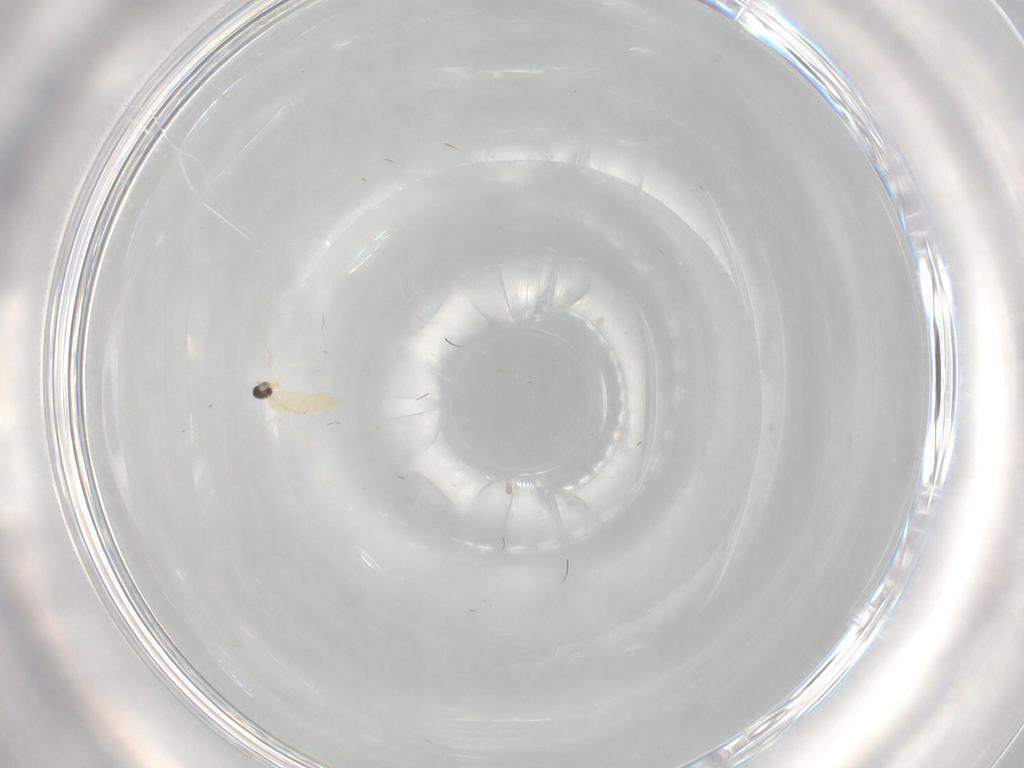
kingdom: Animalia
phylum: Arthropoda
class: Insecta
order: Diptera
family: Cecidomyiidae
